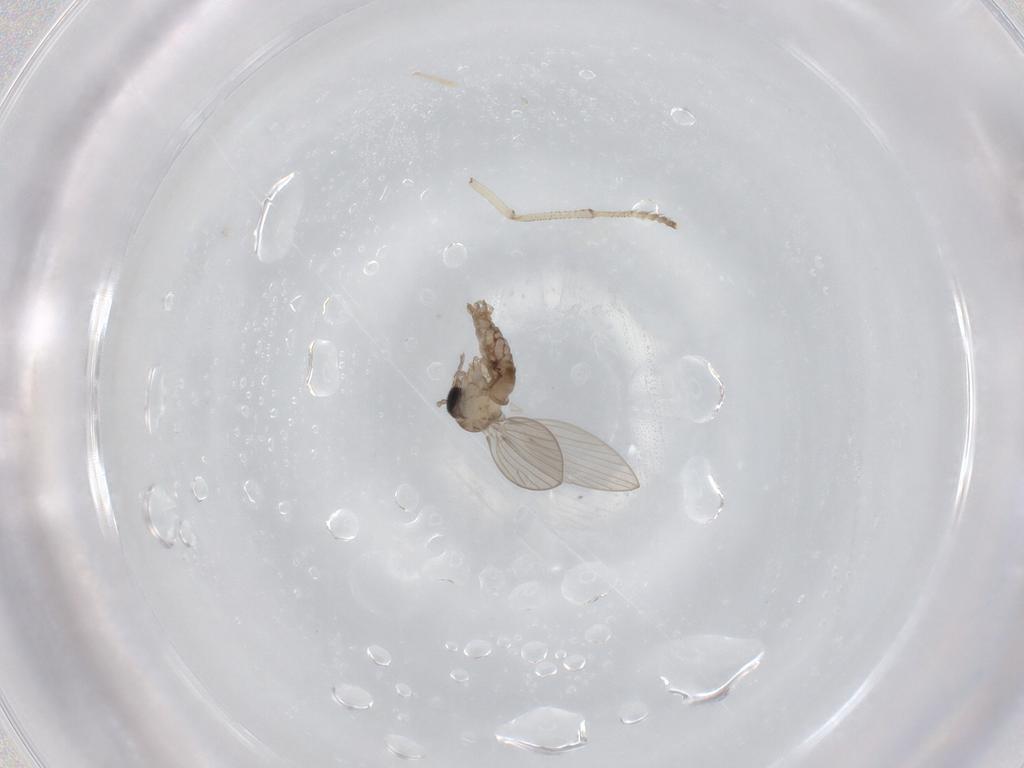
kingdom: Animalia
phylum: Arthropoda
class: Insecta
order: Diptera
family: Psychodidae
